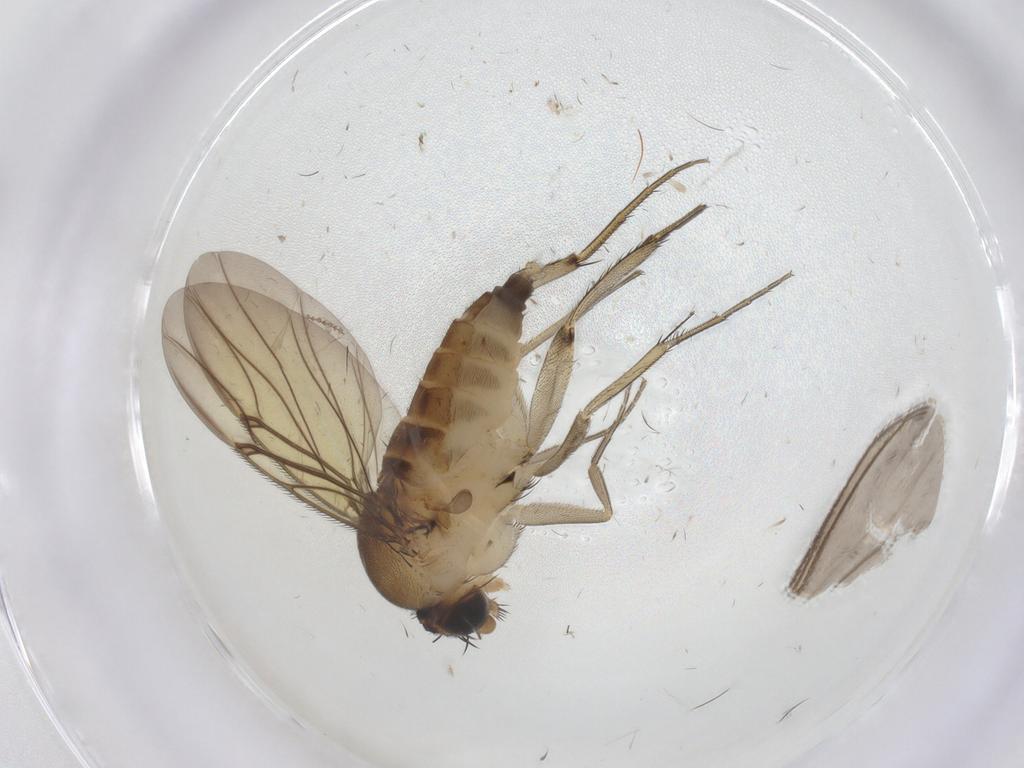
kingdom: Animalia
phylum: Arthropoda
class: Insecta
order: Diptera
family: Phoridae
